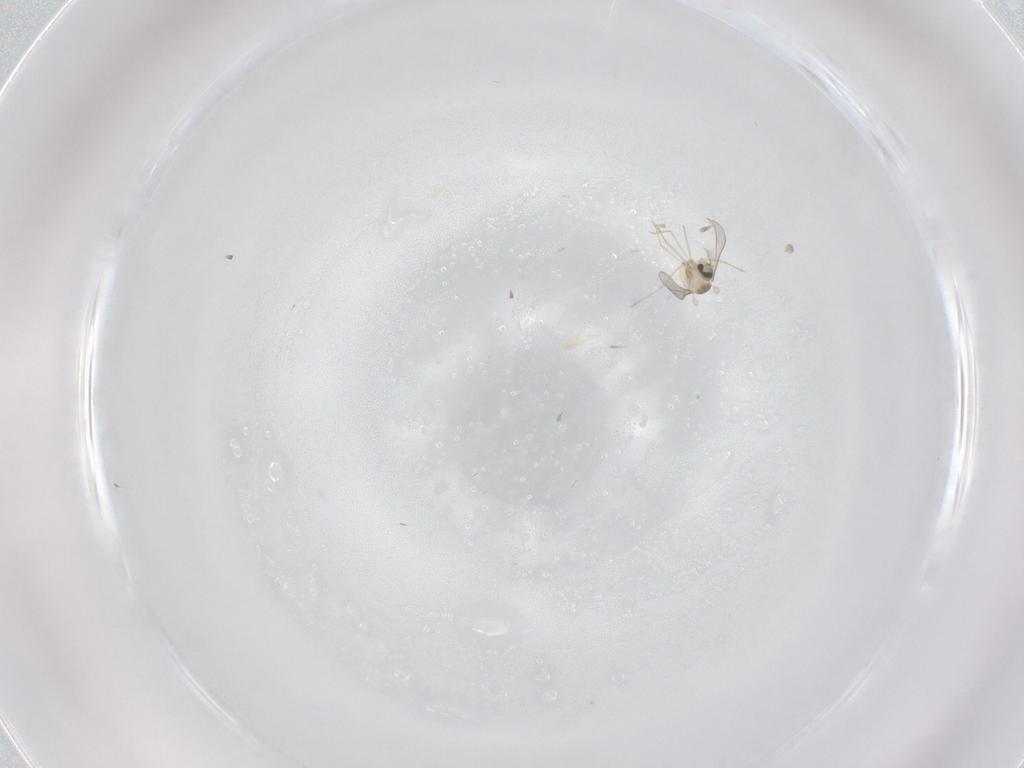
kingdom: Animalia
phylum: Arthropoda
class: Insecta
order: Diptera
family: Cecidomyiidae
